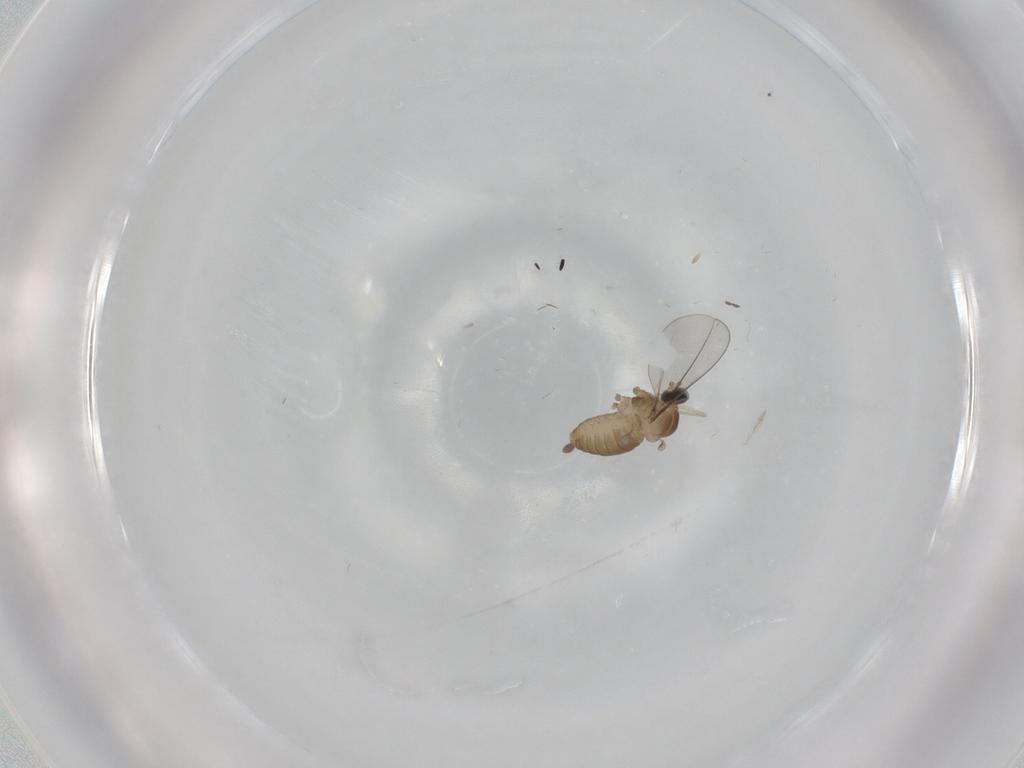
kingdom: Animalia
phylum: Arthropoda
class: Insecta
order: Diptera
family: Cecidomyiidae
